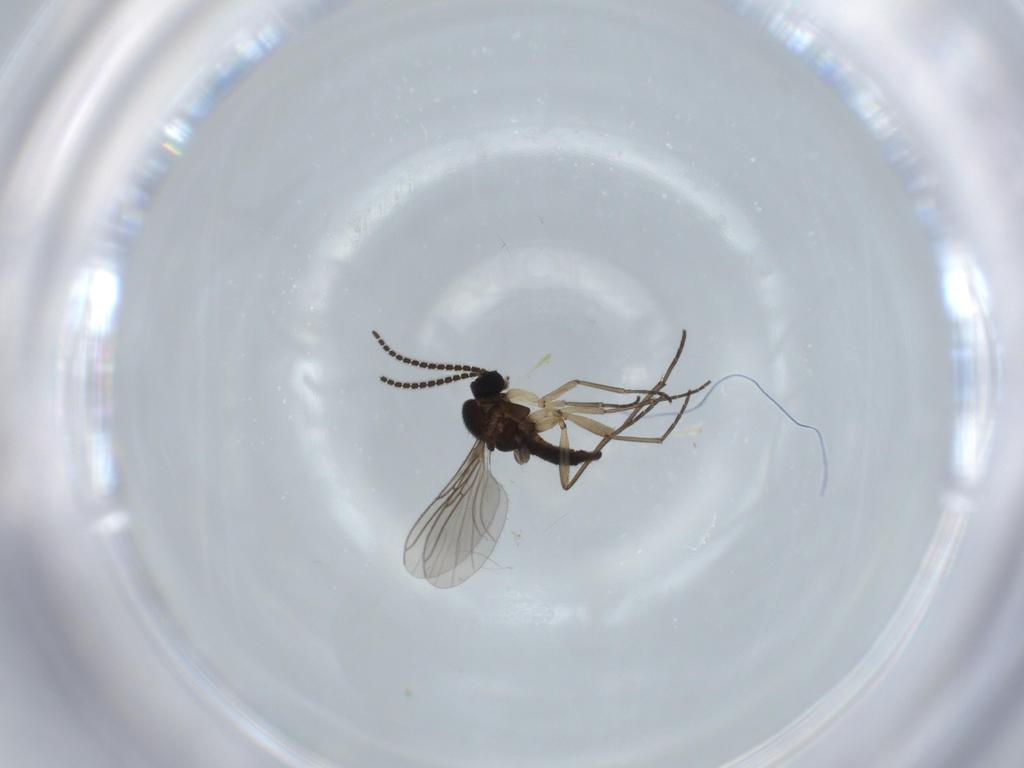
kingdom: Animalia
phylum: Arthropoda
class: Insecta
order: Diptera
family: Sciaridae
